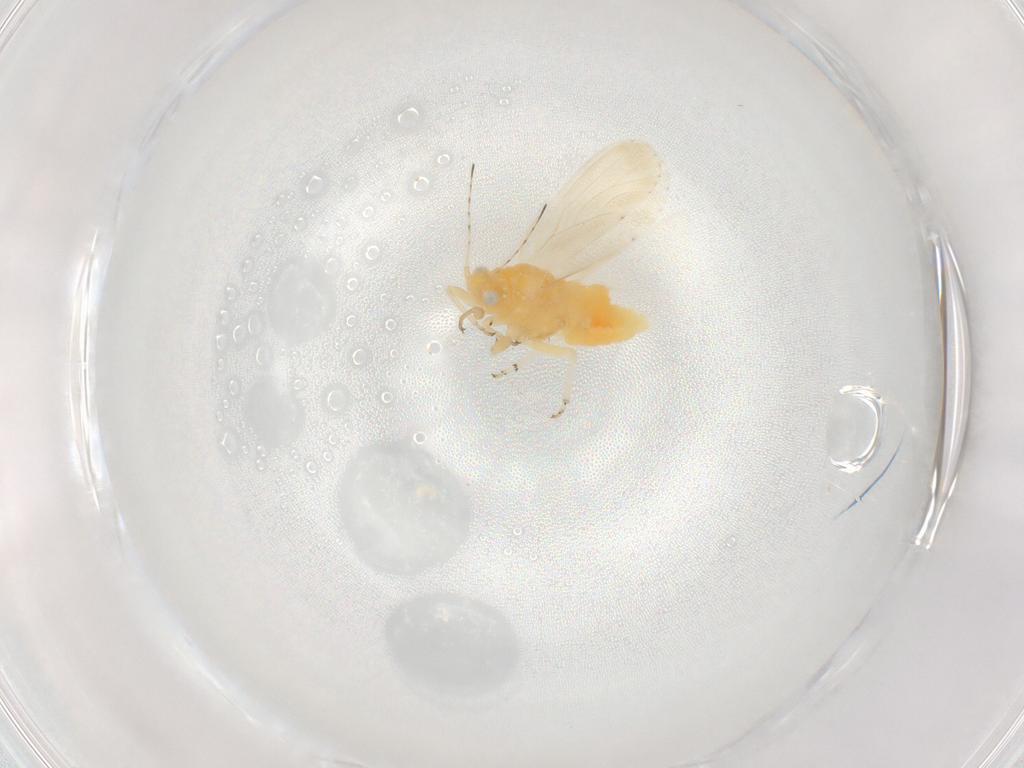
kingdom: Animalia
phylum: Arthropoda
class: Insecta
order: Hemiptera
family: Psyllidae
